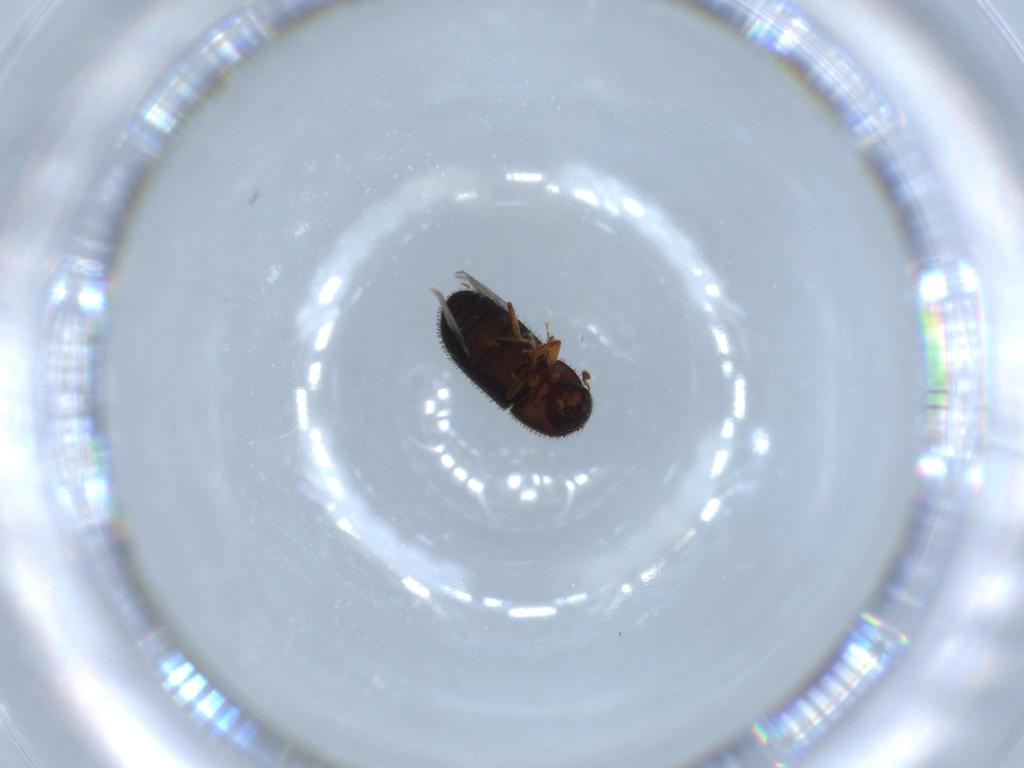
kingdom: Animalia
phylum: Arthropoda
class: Insecta
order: Coleoptera
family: Curculionidae
